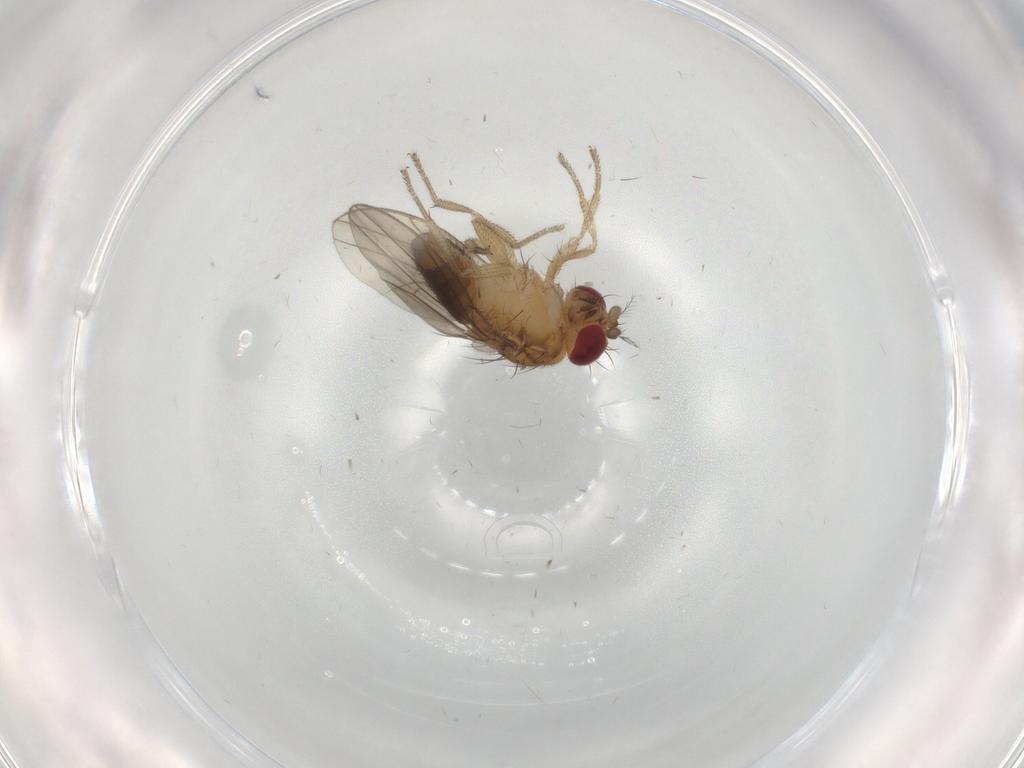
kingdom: Animalia
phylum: Arthropoda
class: Insecta
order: Diptera
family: Drosophilidae
